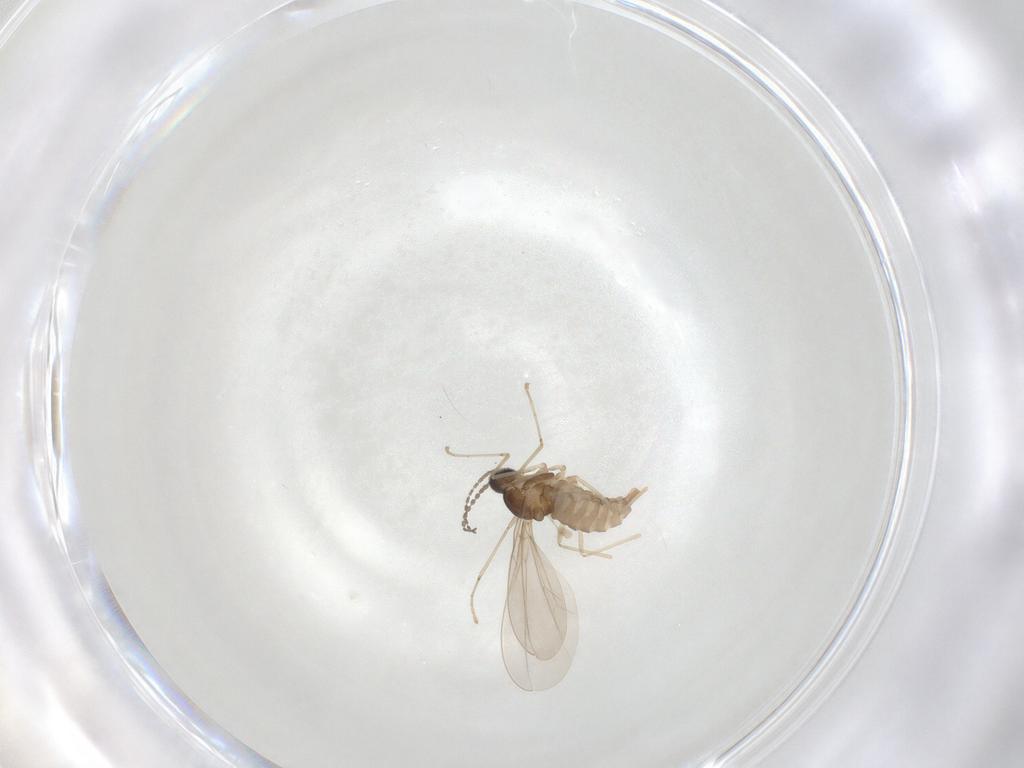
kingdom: Animalia
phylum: Arthropoda
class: Insecta
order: Diptera
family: Cecidomyiidae
